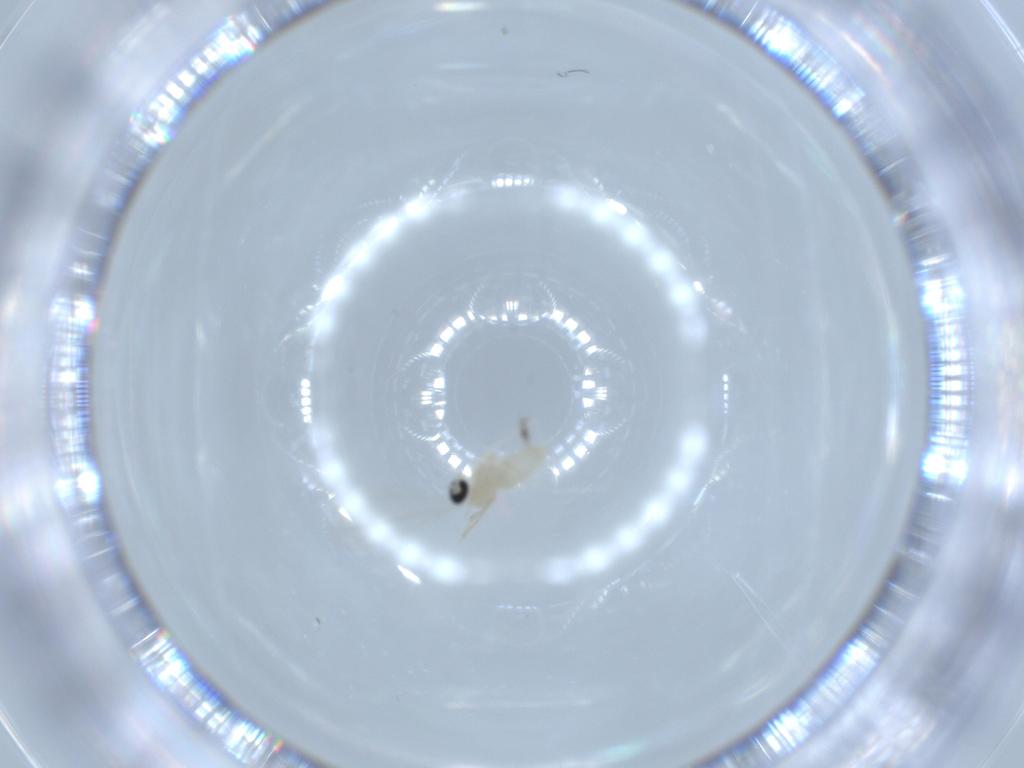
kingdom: Animalia
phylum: Arthropoda
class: Insecta
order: Diptera
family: Cecidomyiidae
